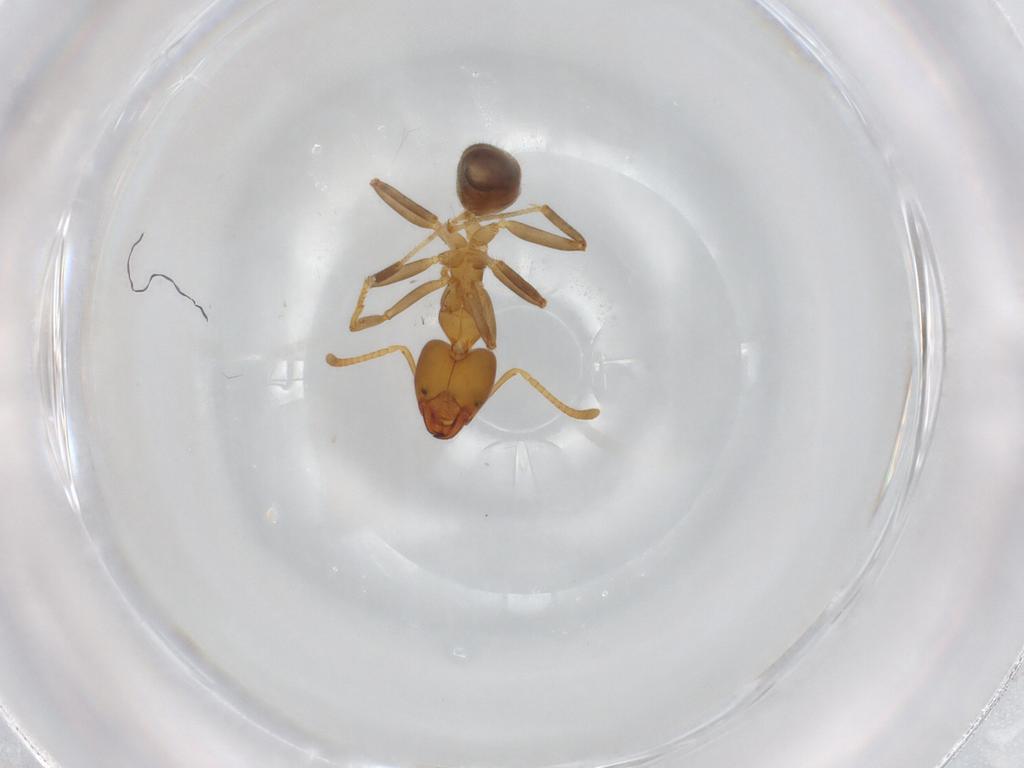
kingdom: Animalia
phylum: Arthropoda
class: Insecta
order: Hymenoptera
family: Formicidae
